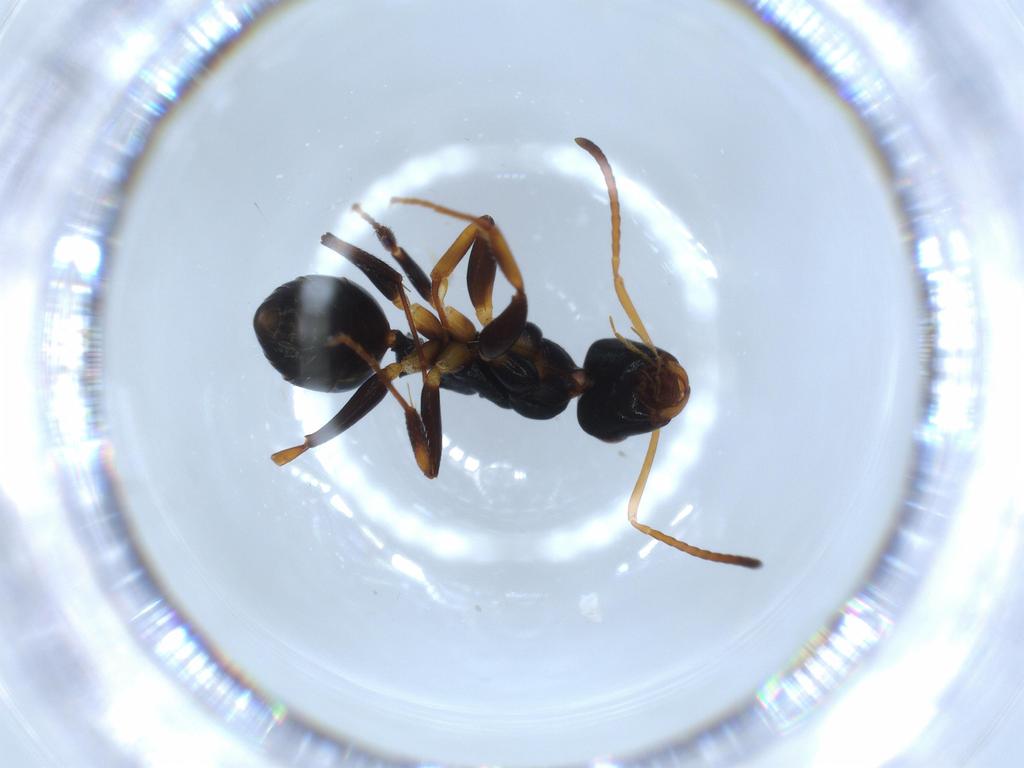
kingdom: Animalia
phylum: Arthropoda
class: Insecta
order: Hymenoptera
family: Formicidae
